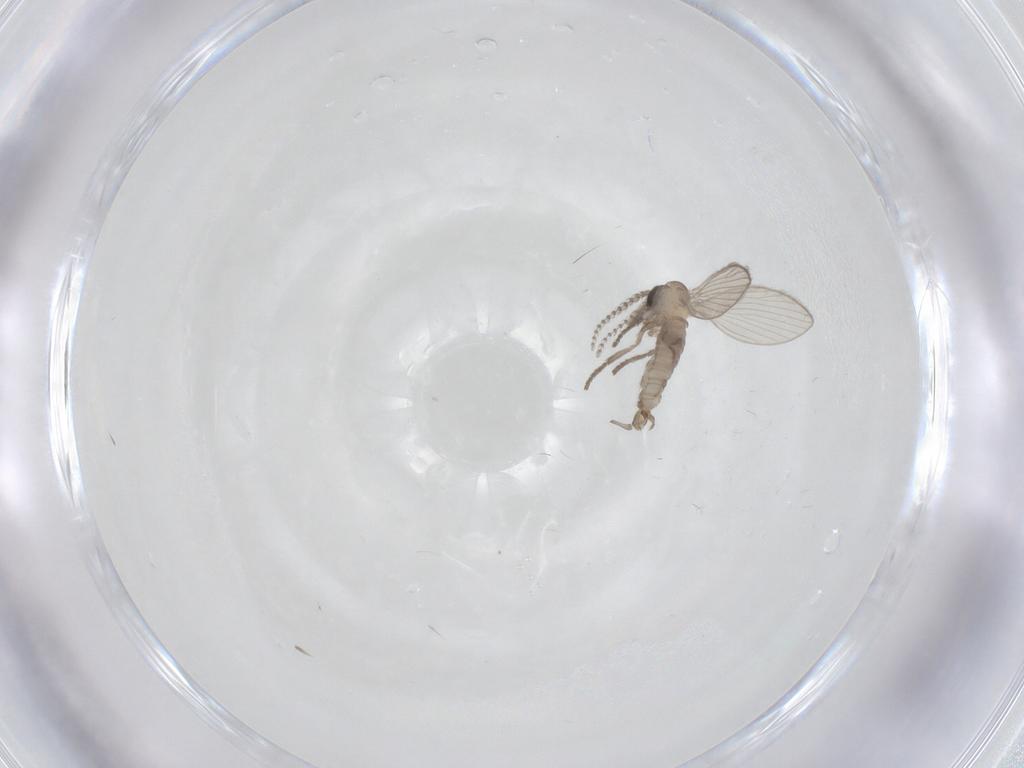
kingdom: Animalia
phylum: Arthropoda
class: Insecta
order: Diptera
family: Psychodidae
